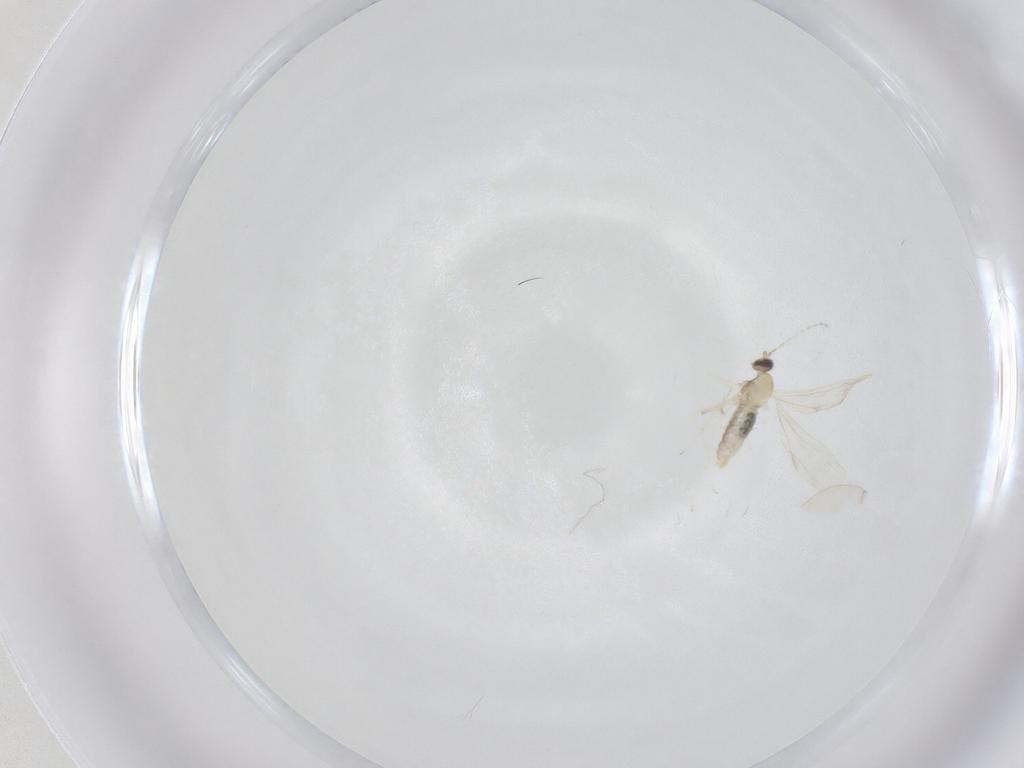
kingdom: Animalia
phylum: Arthropoda
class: Insecta
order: Diptera
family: Cecidomyiidae
